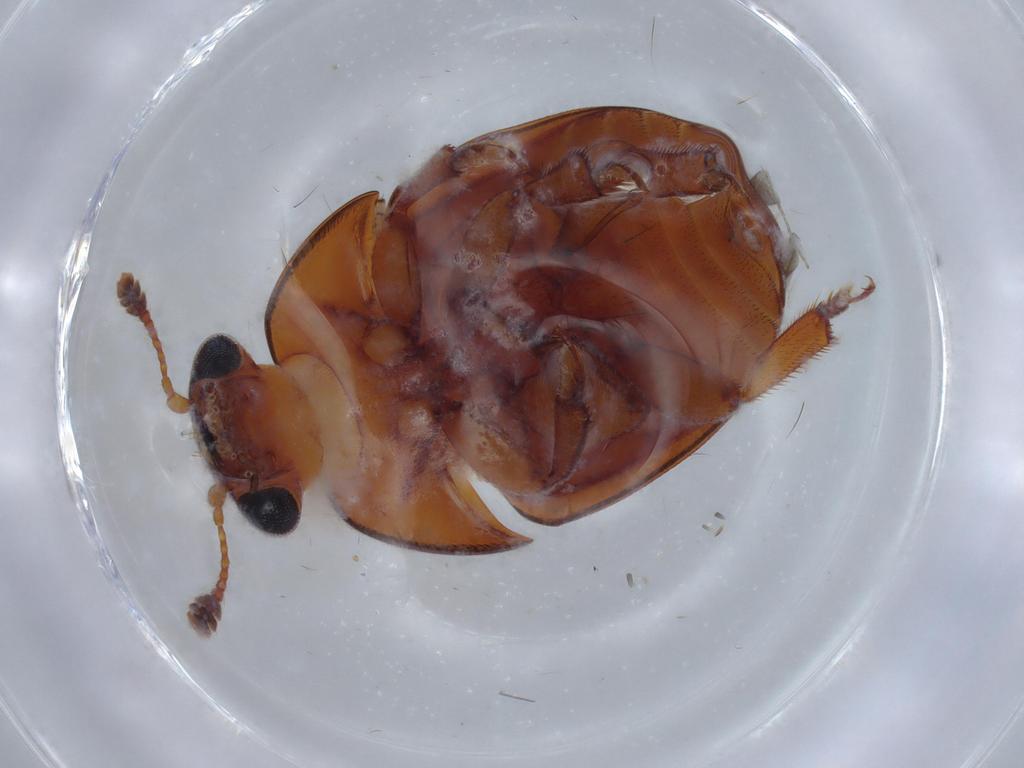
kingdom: Animalia
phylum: Arthropoda
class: Insecta
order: Coleoptera
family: Nitidulidae
